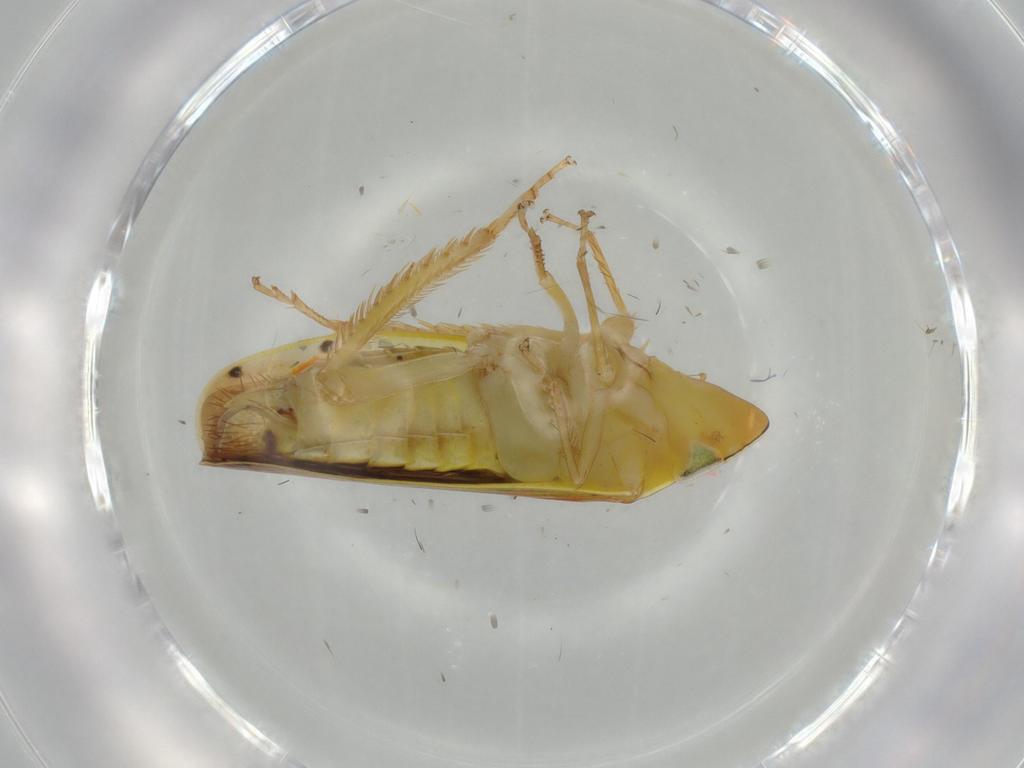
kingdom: Animalia
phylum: Arthropoda
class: Insecta
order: Hemiptera
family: Cicadellidae
